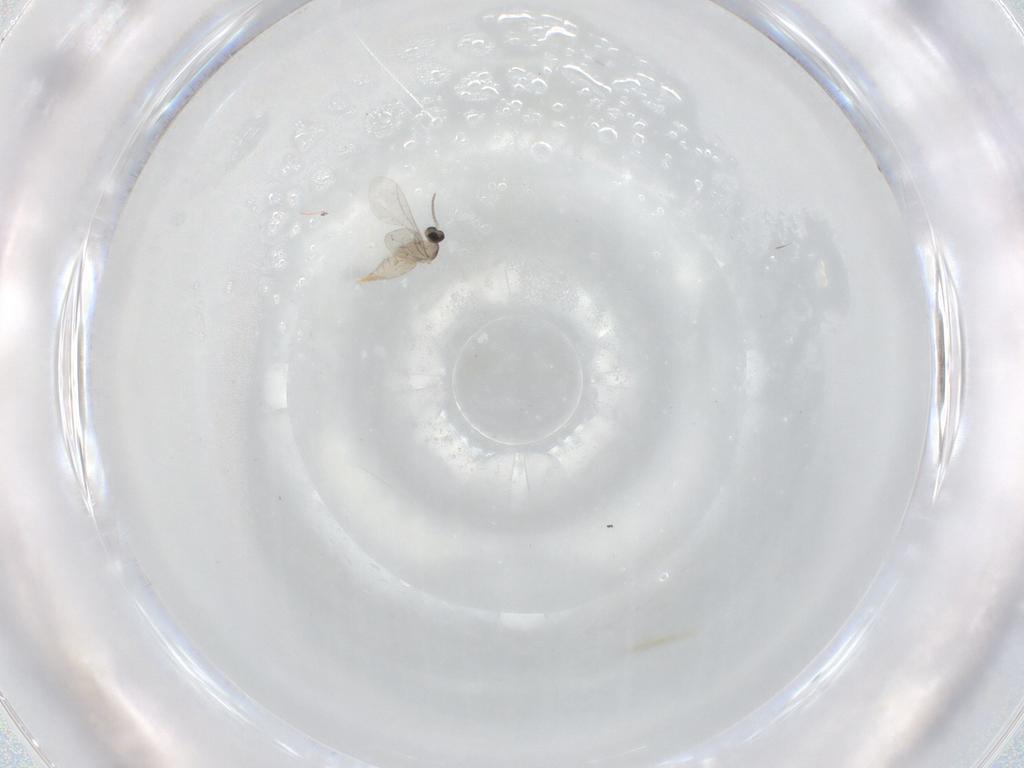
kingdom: Animalia
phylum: Arthropoda
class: Insecta
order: Diptera
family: Cecidomyiidae
